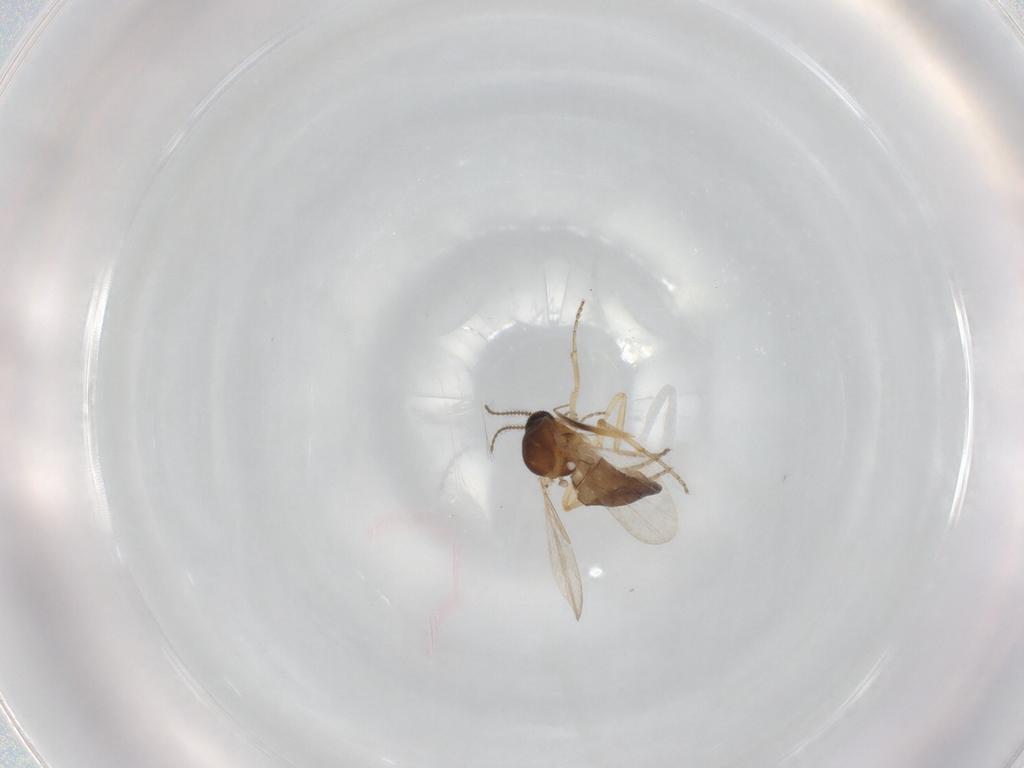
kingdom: Animalia
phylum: Arthropoda
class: Insecta
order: Diptera
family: Ceratopogonidae
